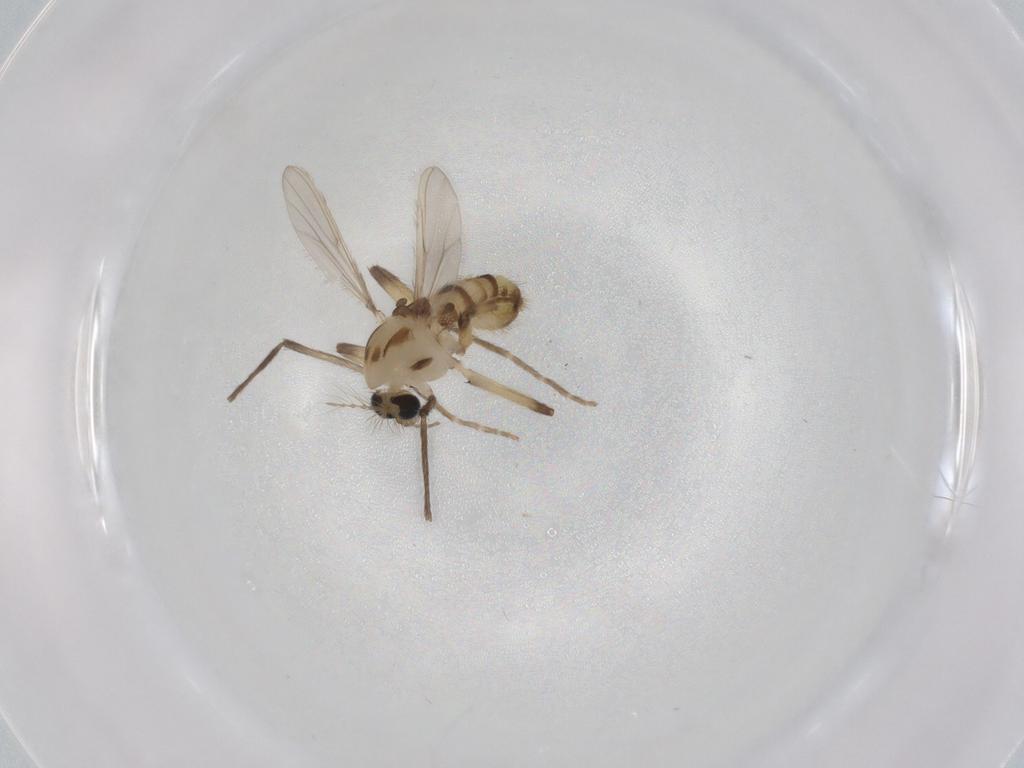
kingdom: Animalia
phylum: Arthropoda
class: Insecta
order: Diptera
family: Chironomidae
